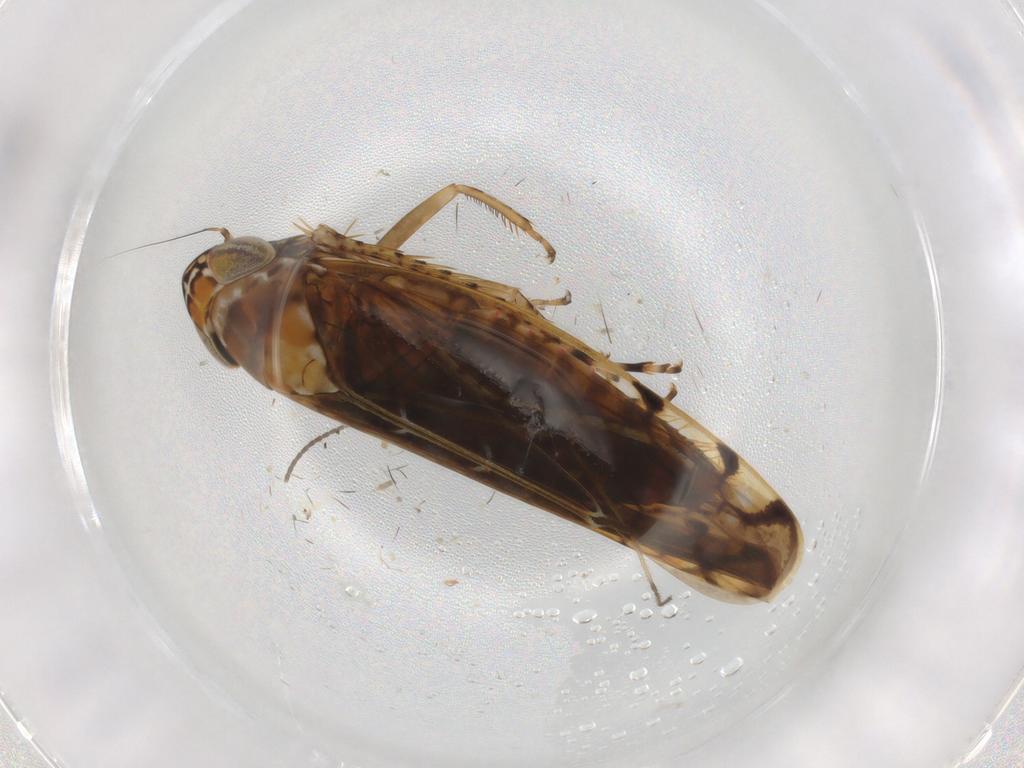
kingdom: Animalia
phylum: Arthropoda
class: Insecta
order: Hemiptera
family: Cicadellidae
